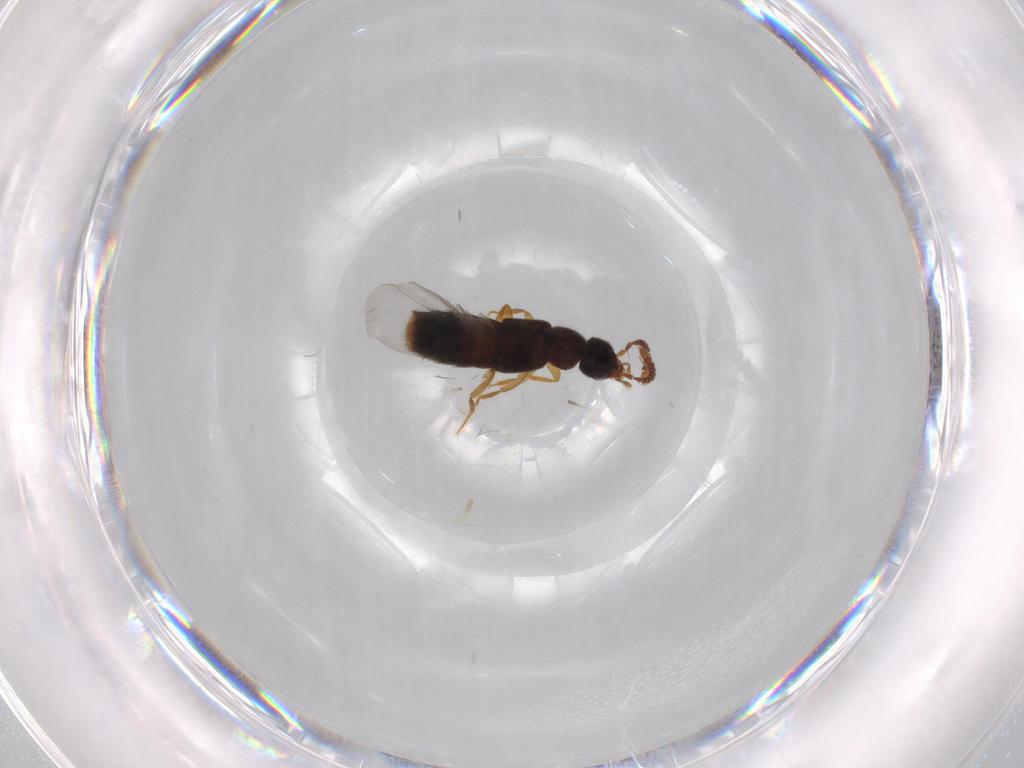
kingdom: Animalia
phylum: Arthropoda
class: Insecta
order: Coleoptera
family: Staphylinidae
